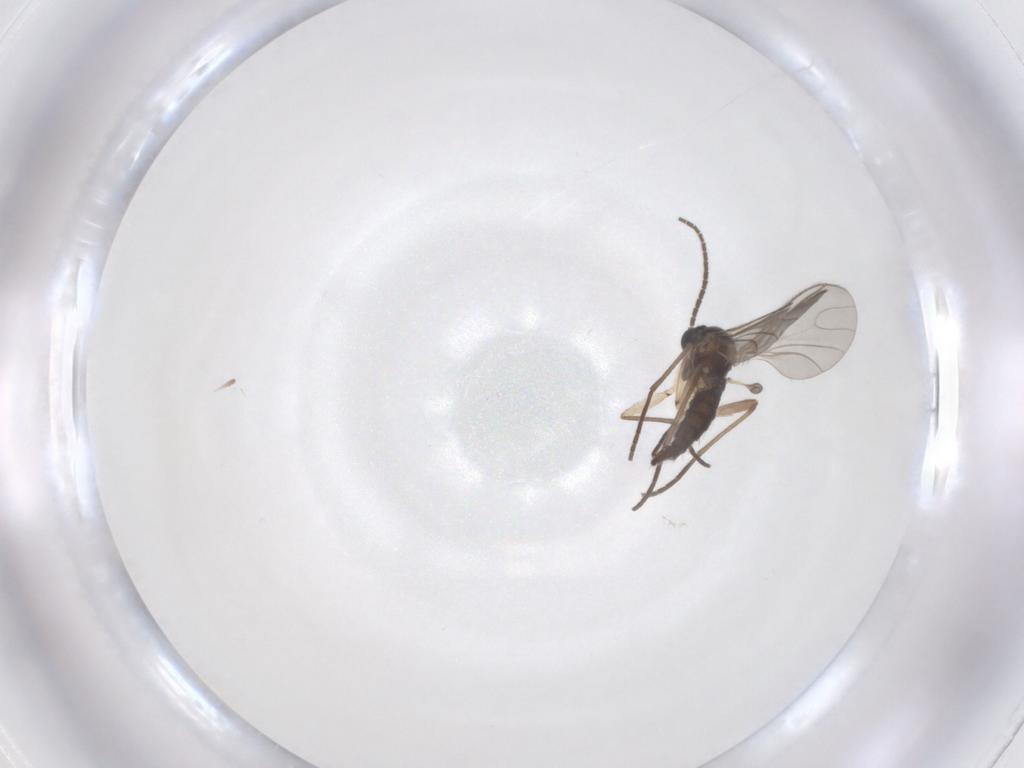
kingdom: Animalia
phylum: Arthropoda
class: Insecta
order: Diptera
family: Sciaridae
